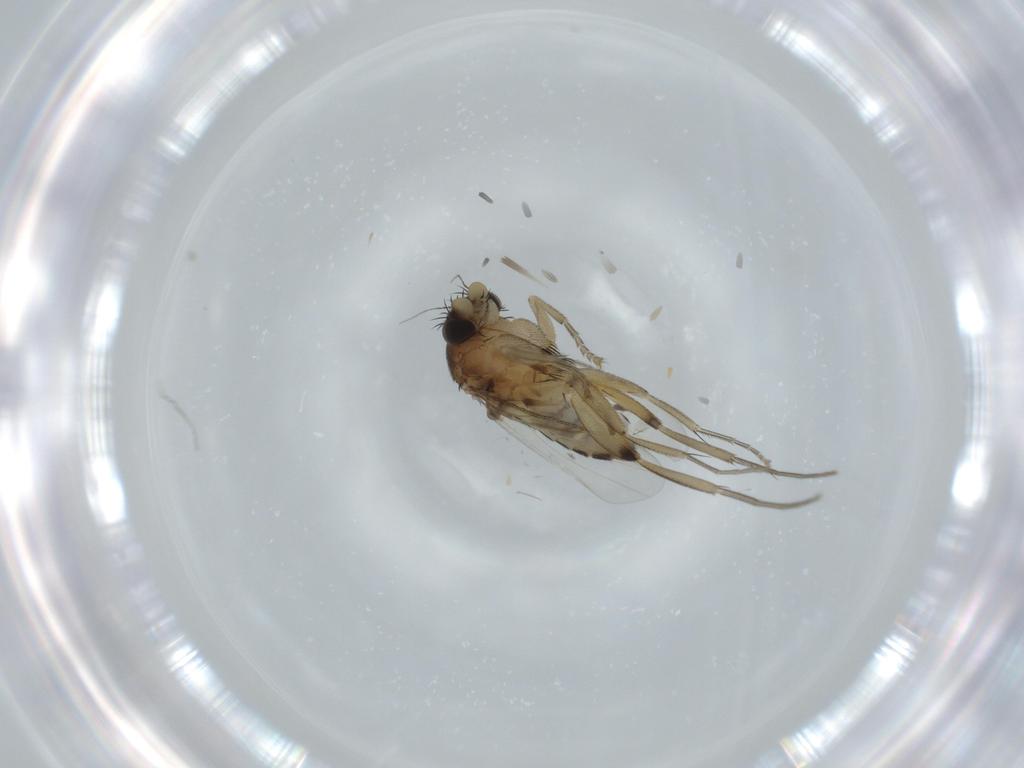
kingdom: Animalia
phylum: Arthropoda
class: Insecta
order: Diptera
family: Phoridae
